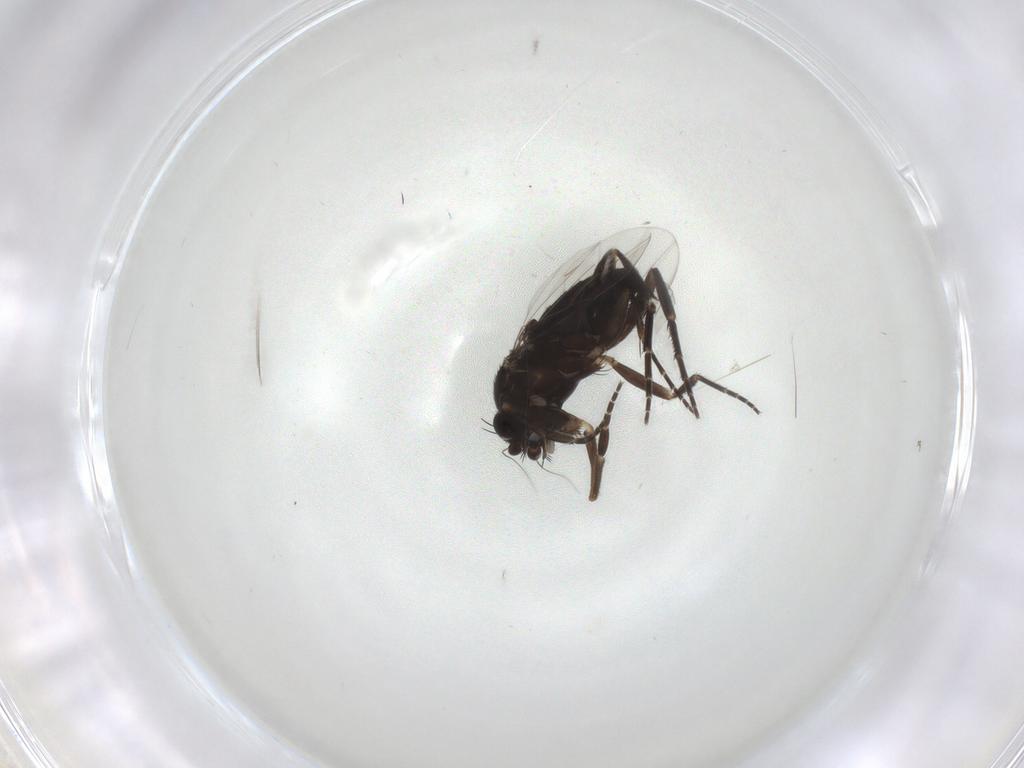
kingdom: Animalia
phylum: Arthropoda
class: Insecta
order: Diptera
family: Phoridae
